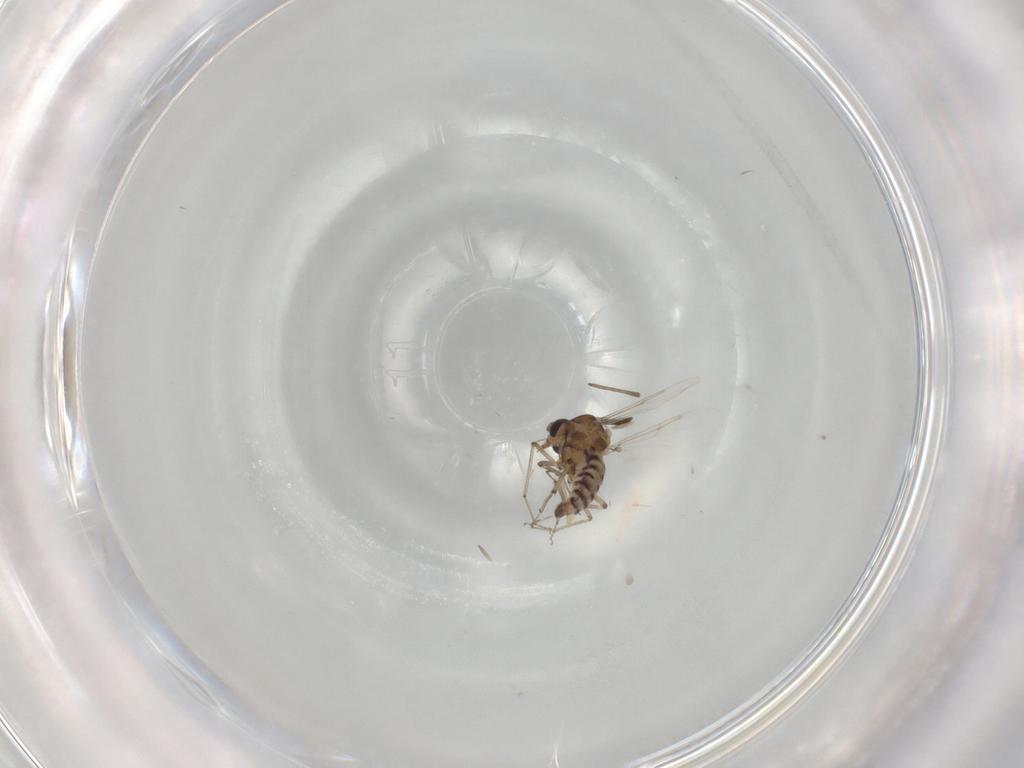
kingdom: Animalia
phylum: Arthropoda
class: Insecta
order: Diptera
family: Ceratopogonidae
